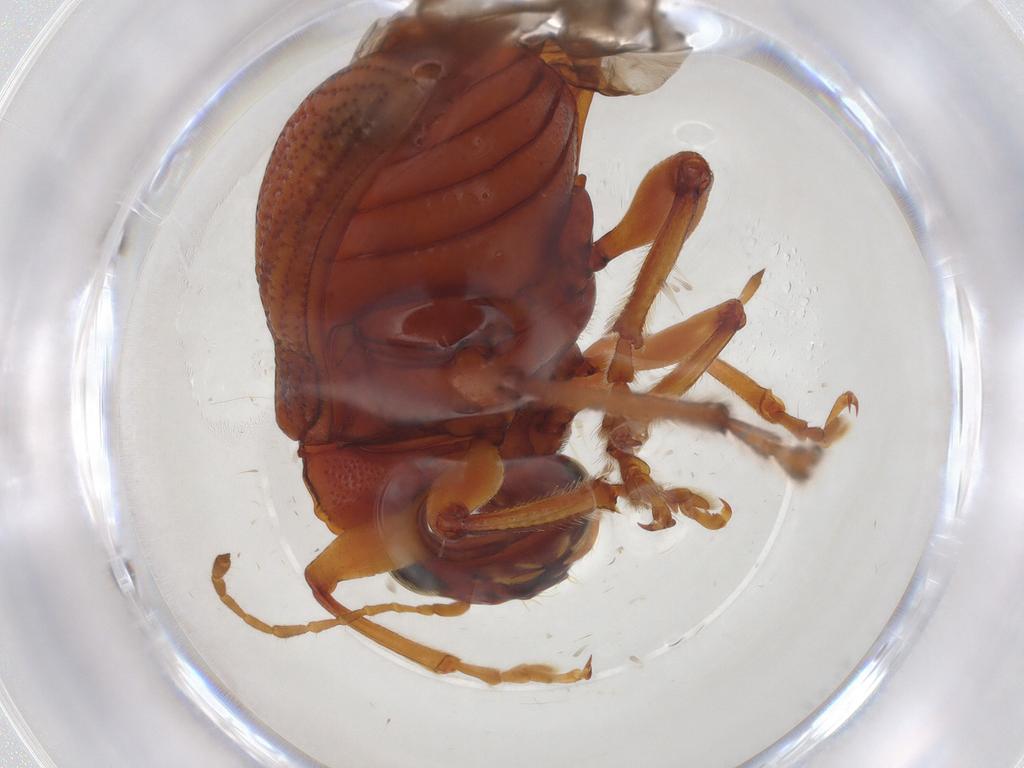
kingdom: Animalia
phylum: Arthropoda
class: Insecta
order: Coleoptera
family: Chrysomelidae
